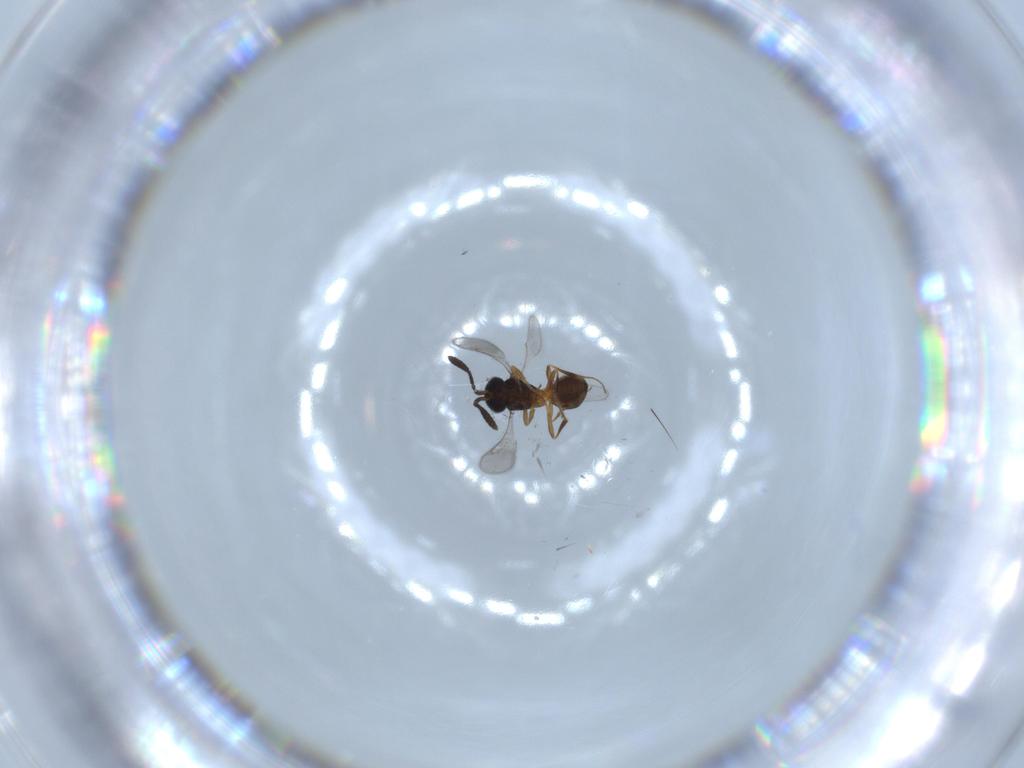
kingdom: Animalia
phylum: Arthropoda
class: Insecta
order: Hymenoptera
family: Scelionidae
